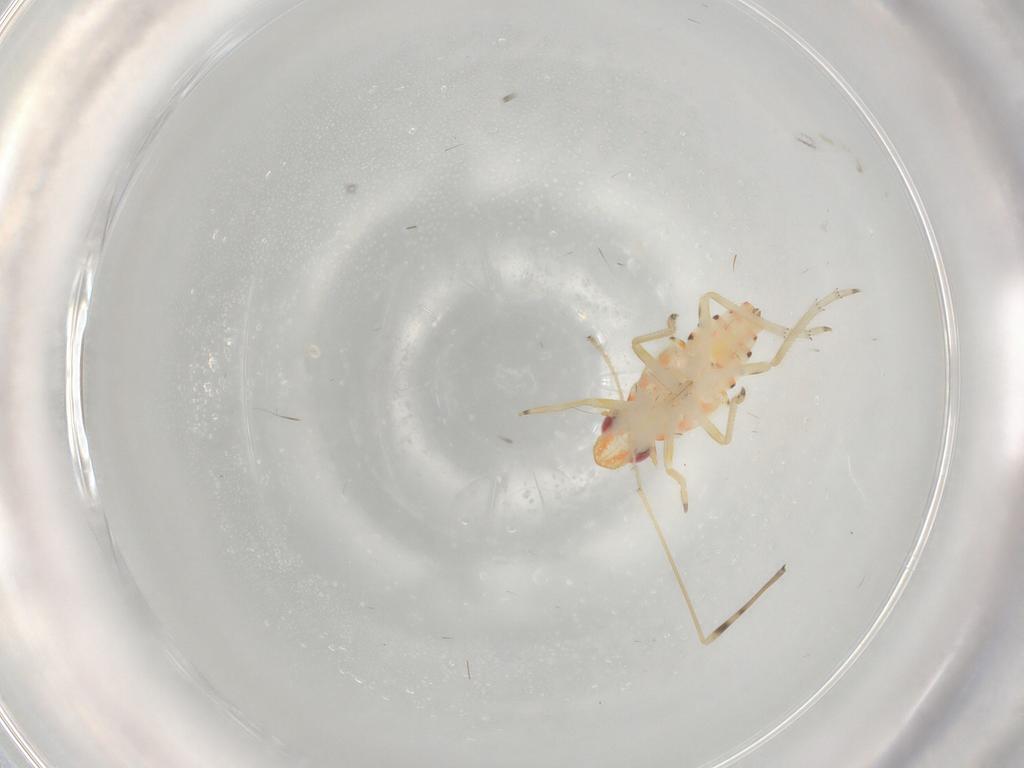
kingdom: Animalia
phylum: Arthropoda
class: Insecta
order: Hemiptera
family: Tropiduchidae
